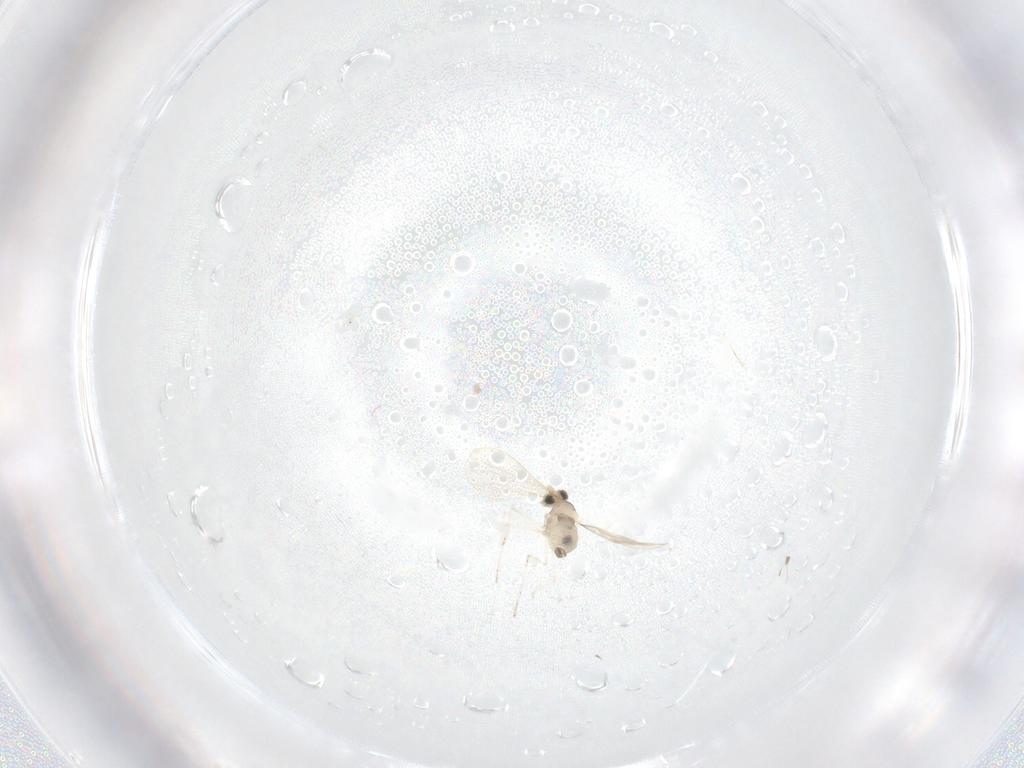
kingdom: Animalia
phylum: Arthropoda
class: Insecta
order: Diptera
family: Cecidomyiidae
